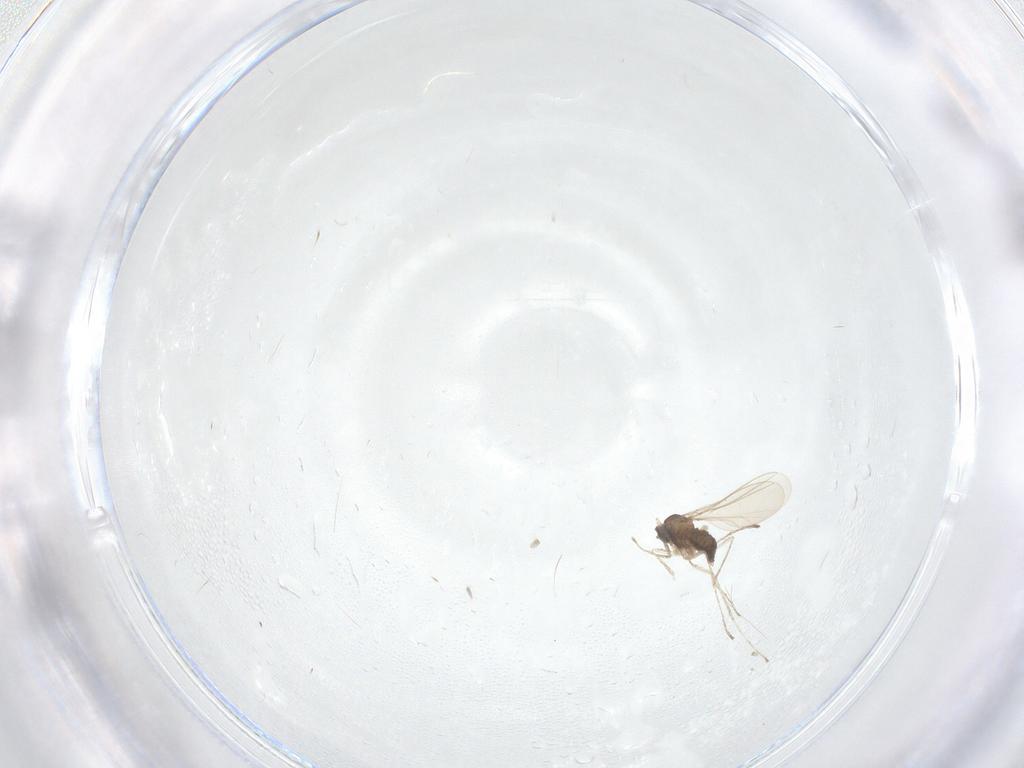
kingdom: Animalia
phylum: Arthropoda
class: Insecta
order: Diptera
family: Cecidomyiidae
